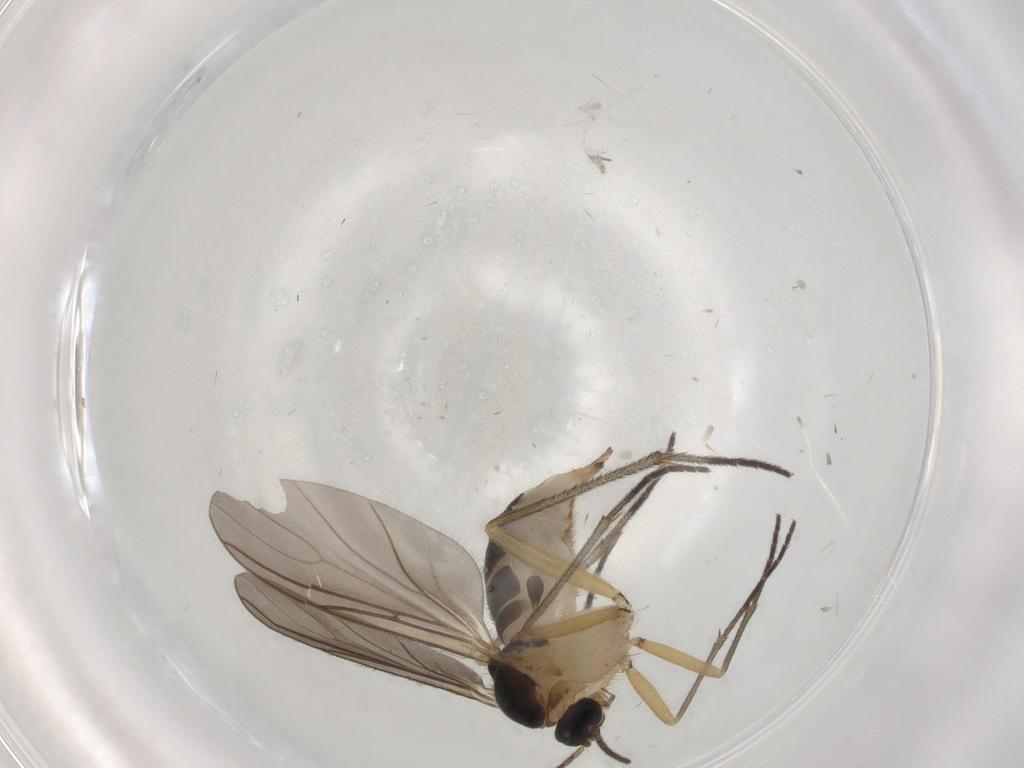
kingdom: Animalia
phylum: Arthropoda
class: Insecta
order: Diptera
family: Sciaridae
